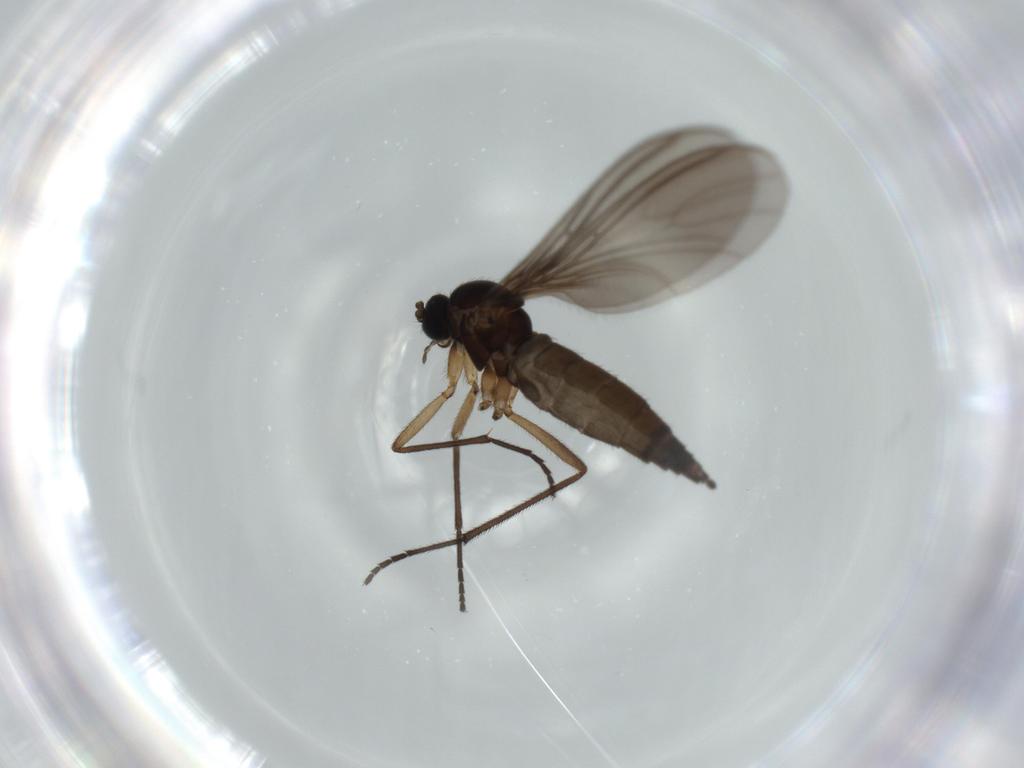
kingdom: Animalia
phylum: Arthropoda
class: Insecta
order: Diptera
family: Sciaridae
